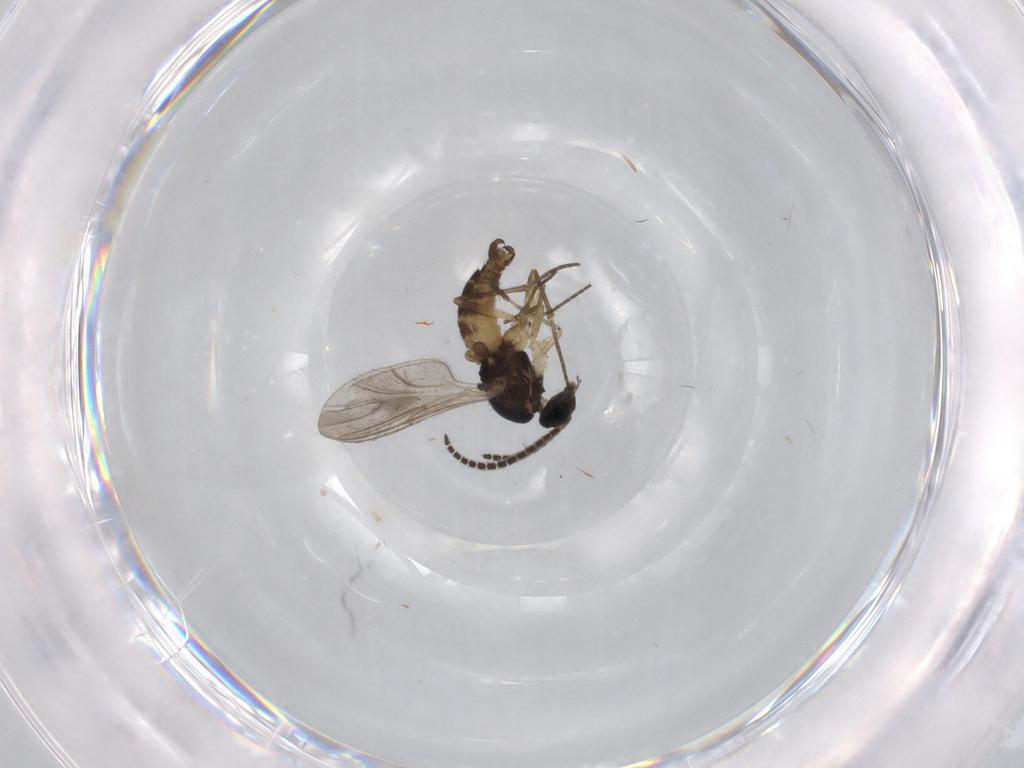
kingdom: Animalia
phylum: Arthropoda
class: Insecta
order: Diptera
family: Sciaridae
